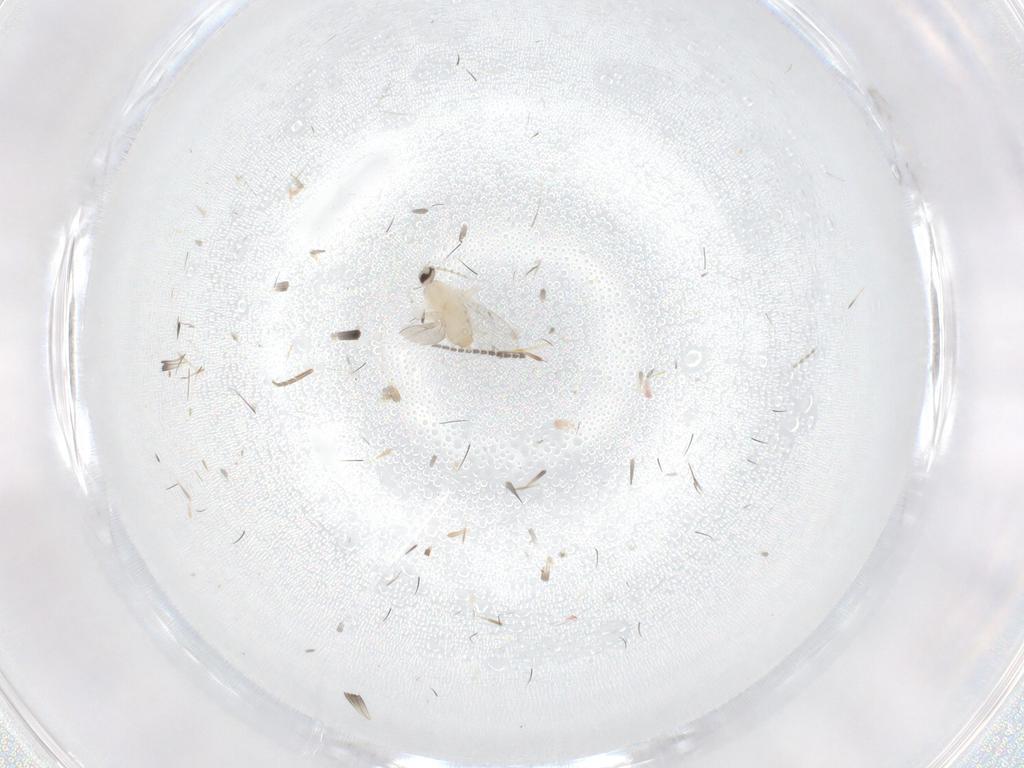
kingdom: Animalia
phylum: Arthropoda
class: Insecta
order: Diptera
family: Cecidomyiidae
